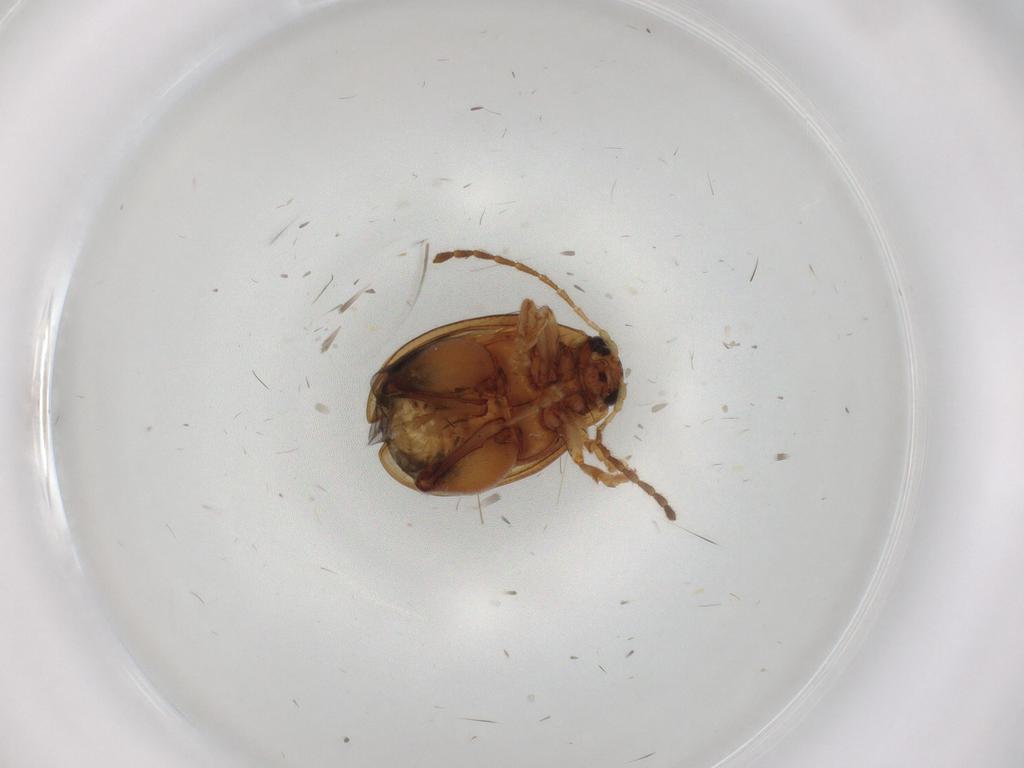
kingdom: Animalia
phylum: Arthropoda
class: Insecta
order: Coleoptera
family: Chrysomelidae
